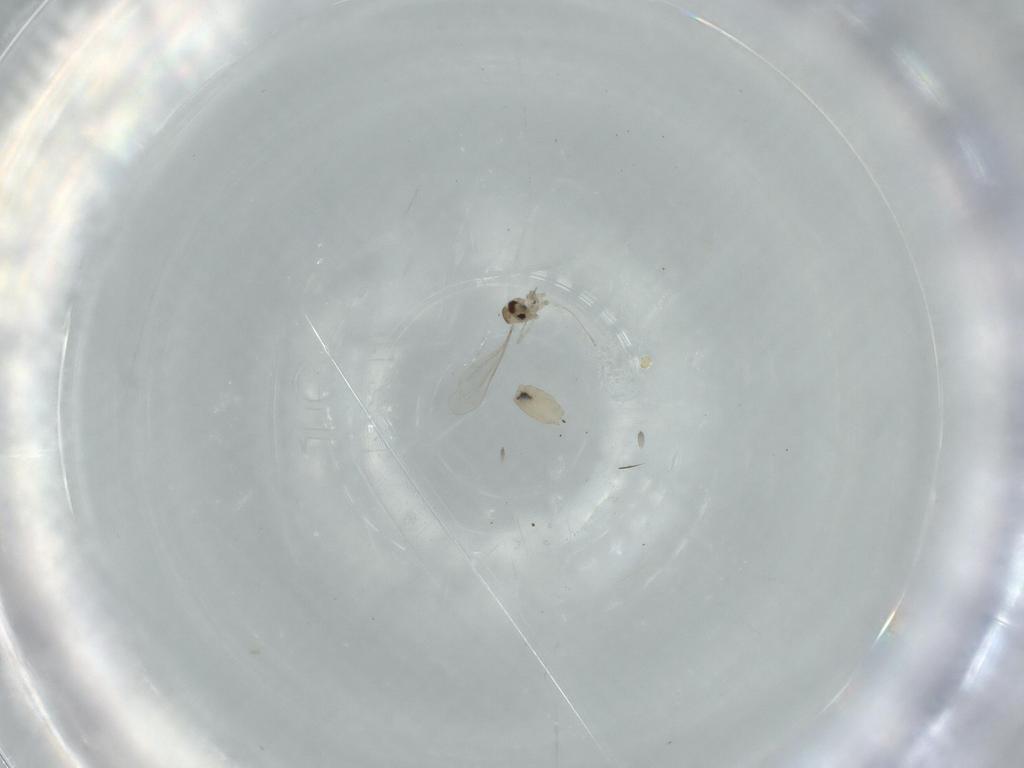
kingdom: Animalia
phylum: Arthropoda
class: Insecta
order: Diptera
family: Cecidomyiidae
